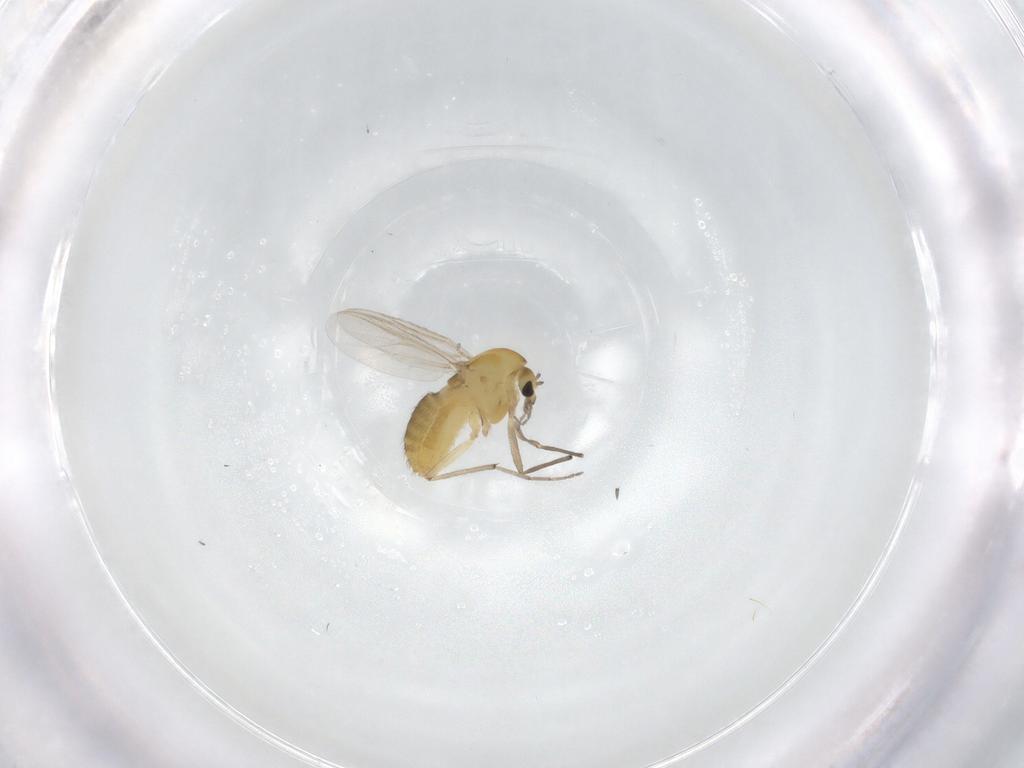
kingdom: Animalia
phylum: Arthropoda
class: Insecta
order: Diptera
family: Chironomidae
